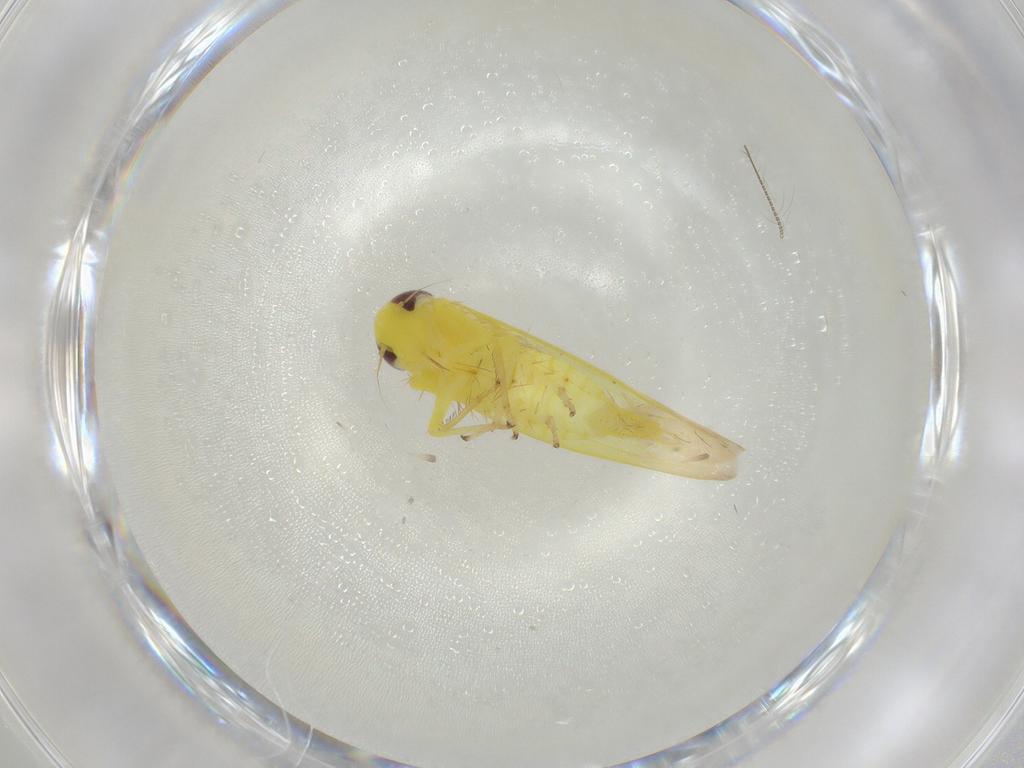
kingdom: Animalia
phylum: Arthropoda
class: Insecta
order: Hemiptera
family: Cicadellidae
